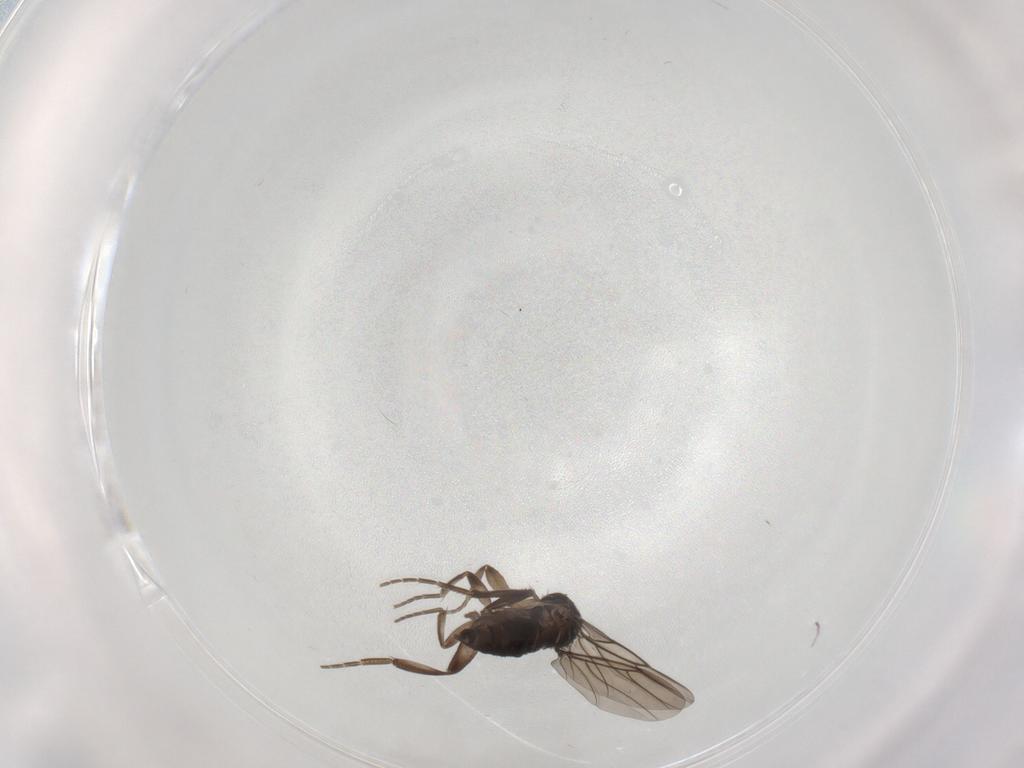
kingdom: Animalia
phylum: Arthropoda
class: Insecta
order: Diptera
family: Phoridae
